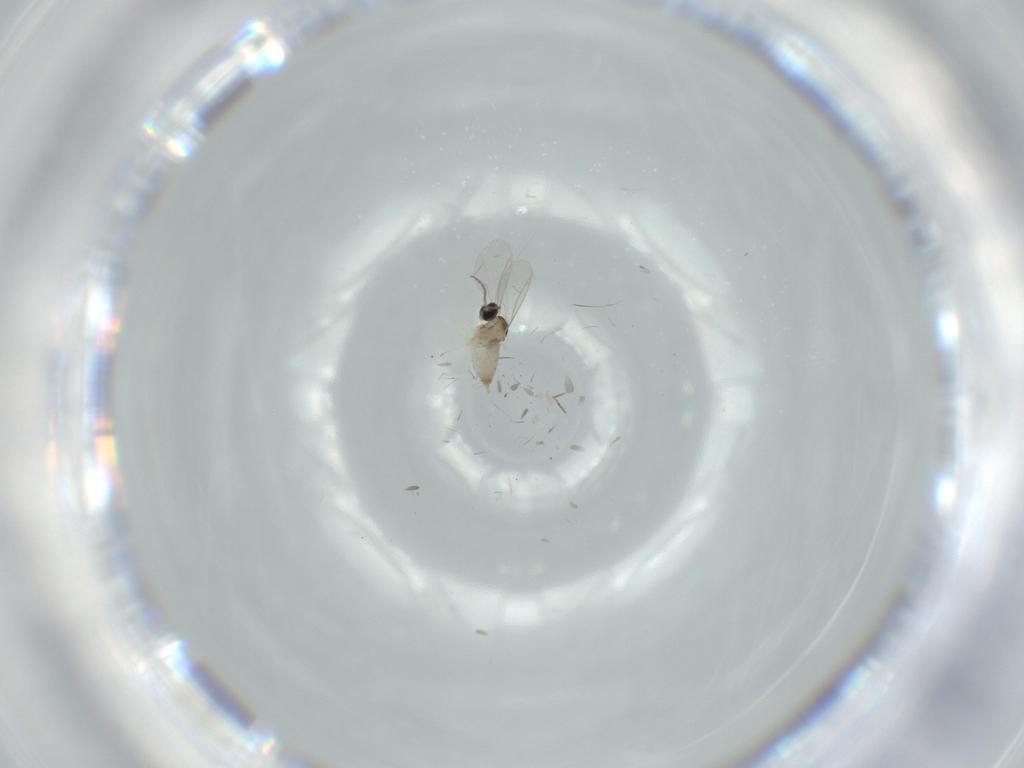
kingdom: Animalia
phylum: Arthropoda
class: Insecta
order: Diptera
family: Cecidomyiidae
